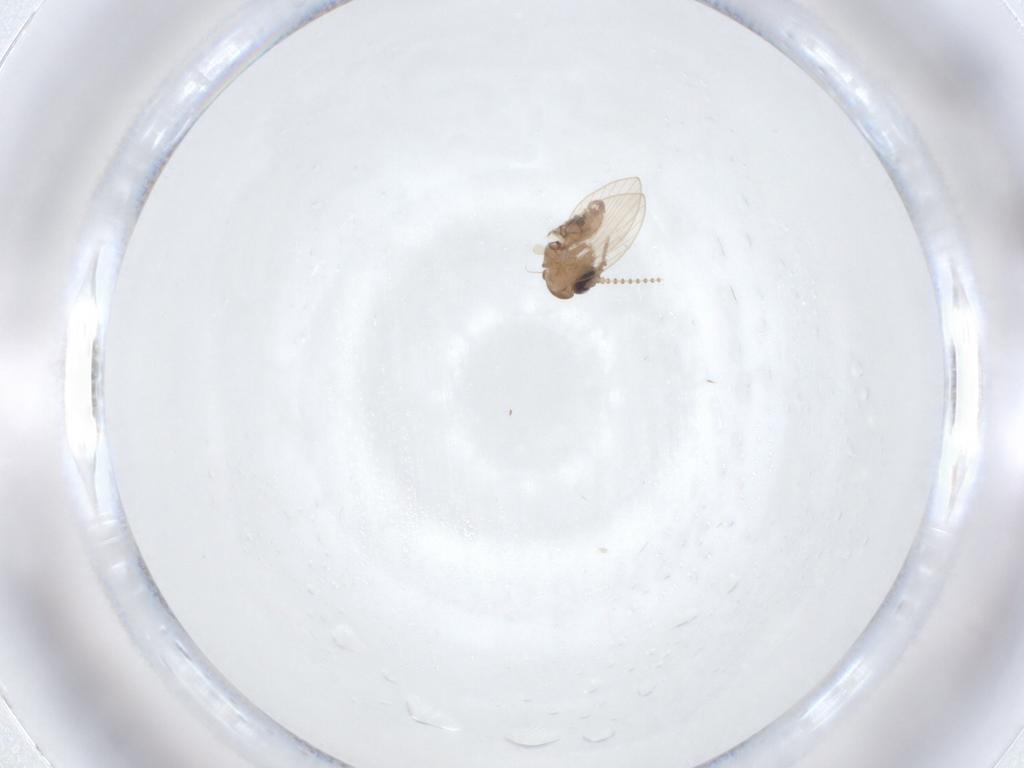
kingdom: Animalia
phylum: Arthropoda
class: Insecta
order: Diptera
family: Psychodidae
